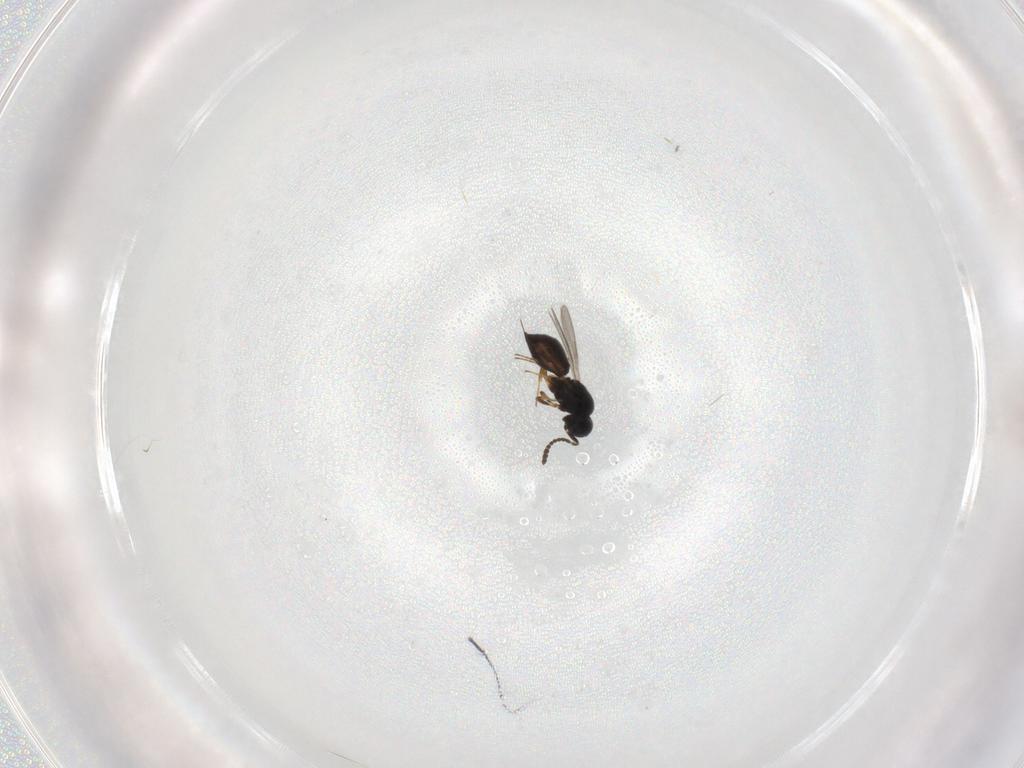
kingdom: Animalia
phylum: Arthropoda
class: Insecta
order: Hymenoptera
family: Scelionidae
